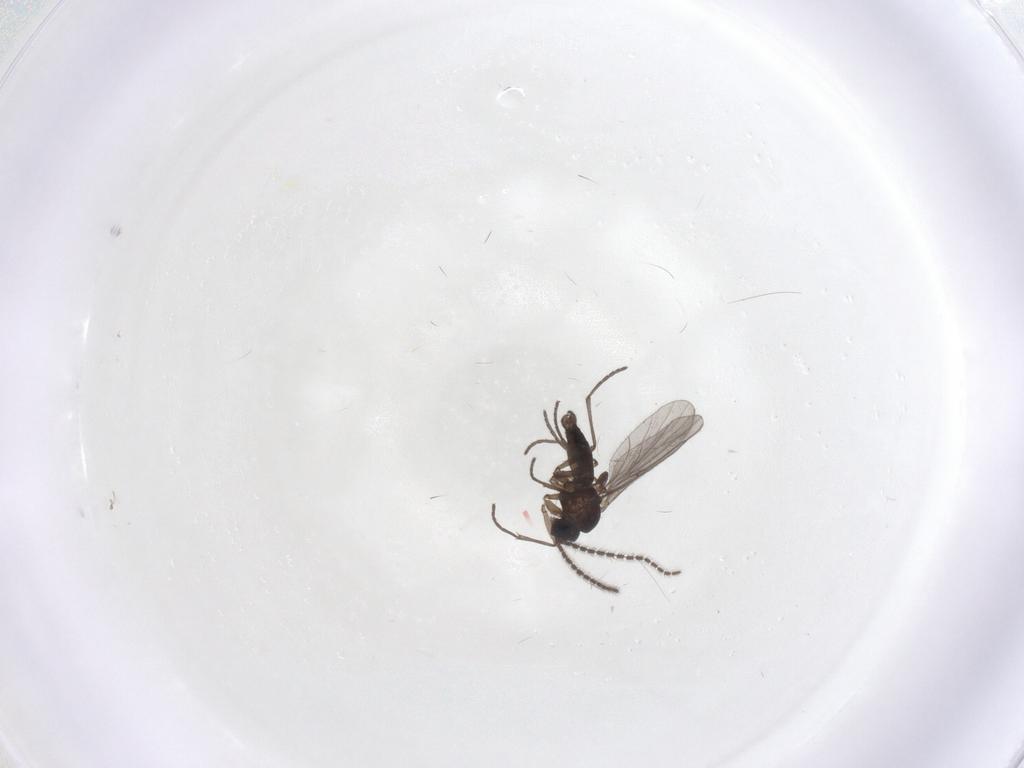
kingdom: Animalia
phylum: Arthropoda
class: Insecta
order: Diptera
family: Sciaridae
